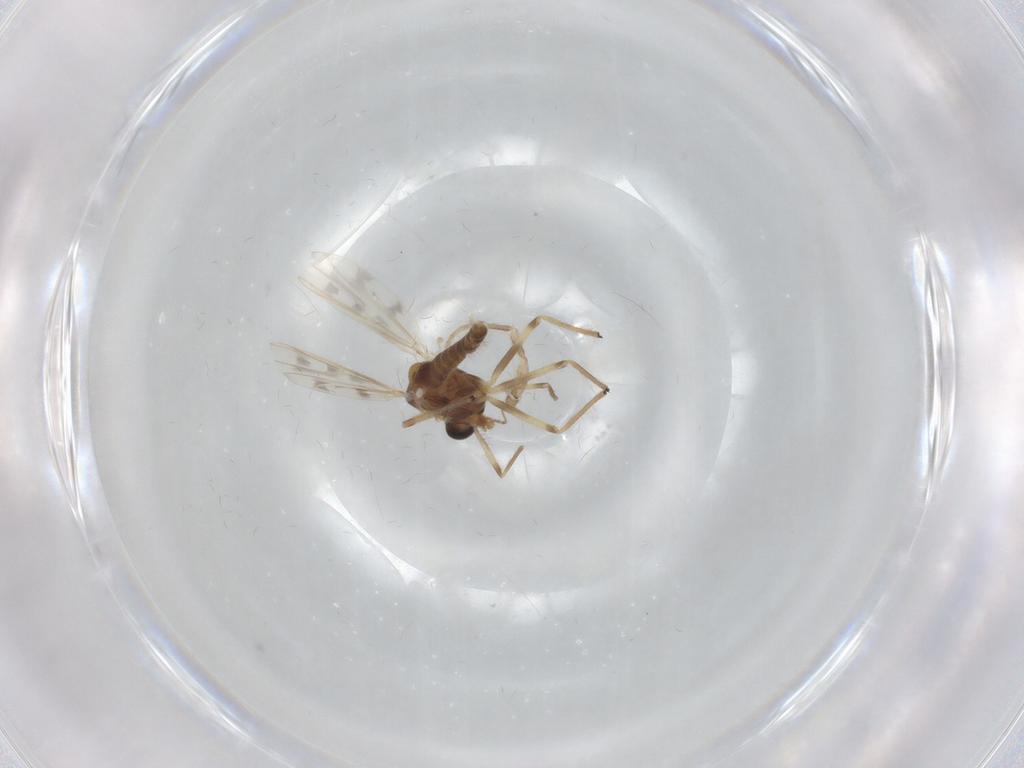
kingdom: Animalia
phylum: Arthropoda
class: Insecta
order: Diptera
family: Chironomidae
